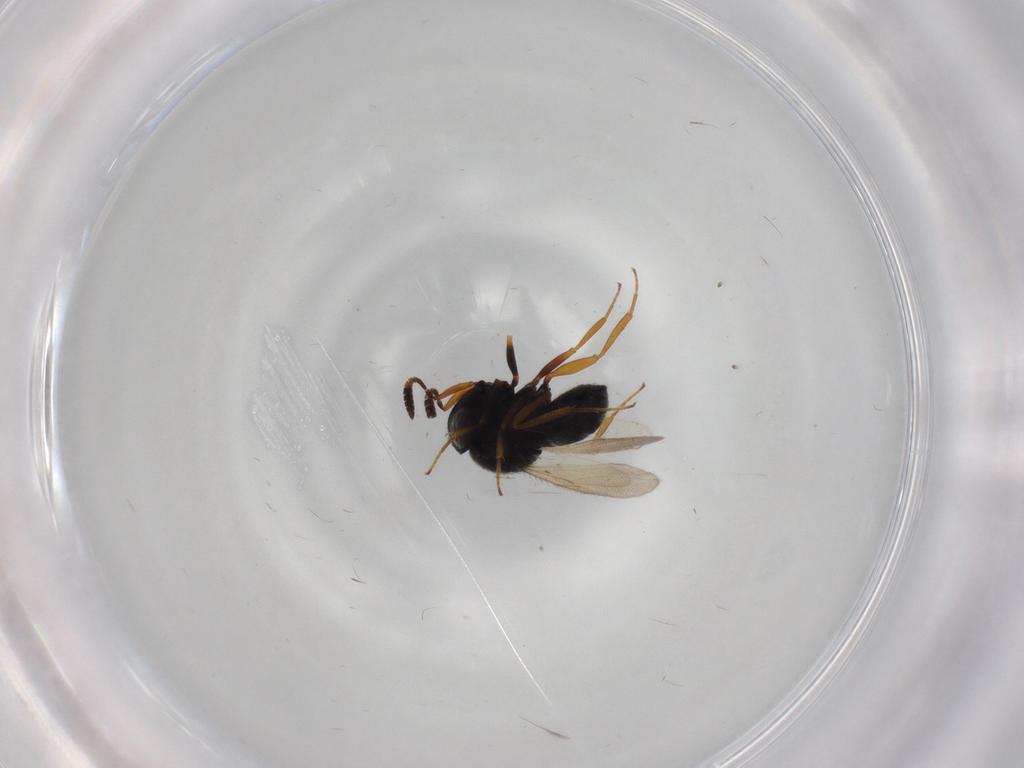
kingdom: Animalia
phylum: Arthropoda
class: Insecta
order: Hymenoptera
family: Scelionidae
